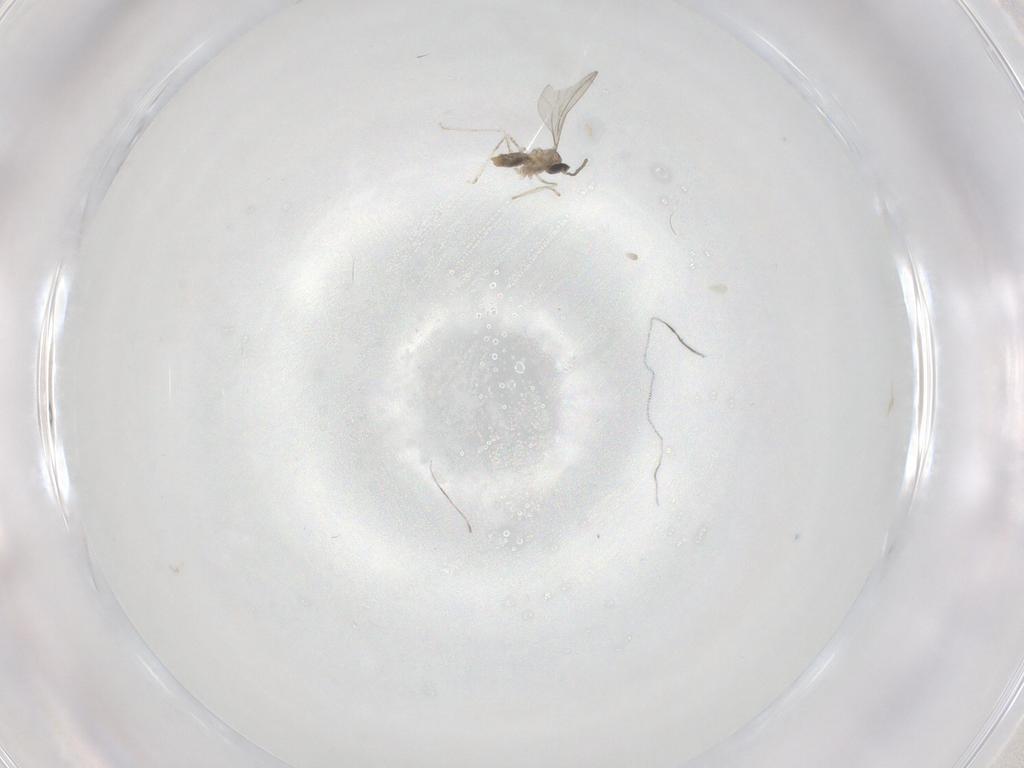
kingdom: Animalia
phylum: Arthropoda
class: Insecta
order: Diptera
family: Cecidomyiidae
